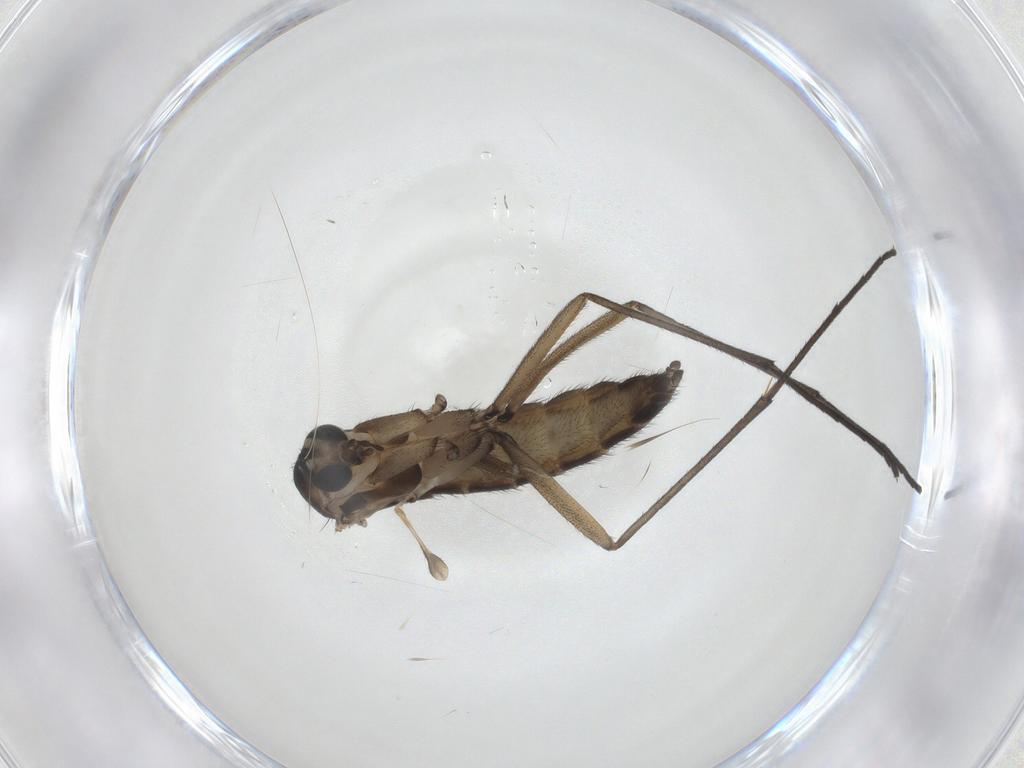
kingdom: Animalia
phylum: Arthropoda
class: Insecta
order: Diptera
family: Sciaridae
